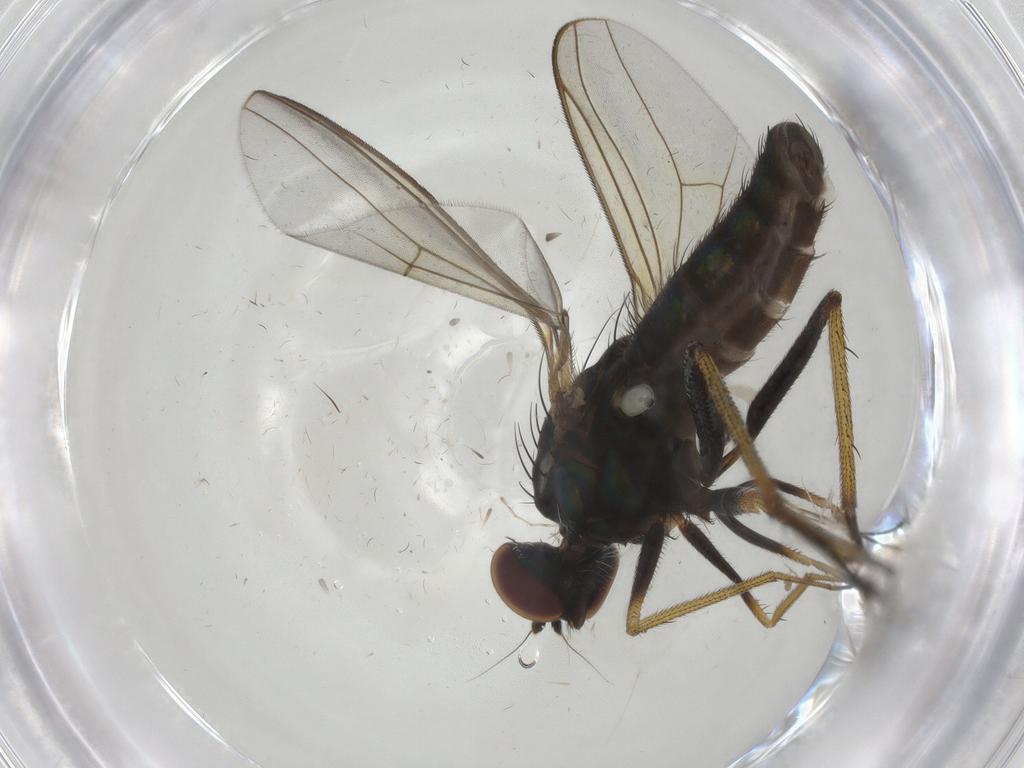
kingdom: Animalia
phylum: Arthropoda
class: Insecta
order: Diptera
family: Dolichopodidae
